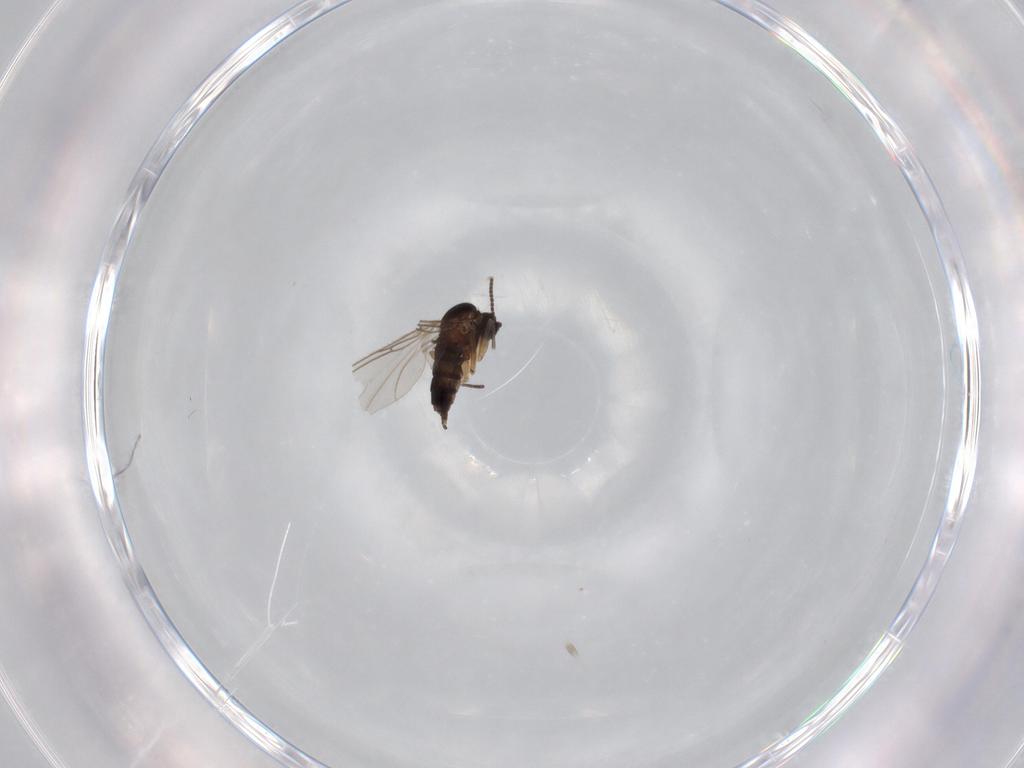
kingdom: Animalia
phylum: Arthropoda
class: Insecta
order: Diptera
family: Sciaridae
